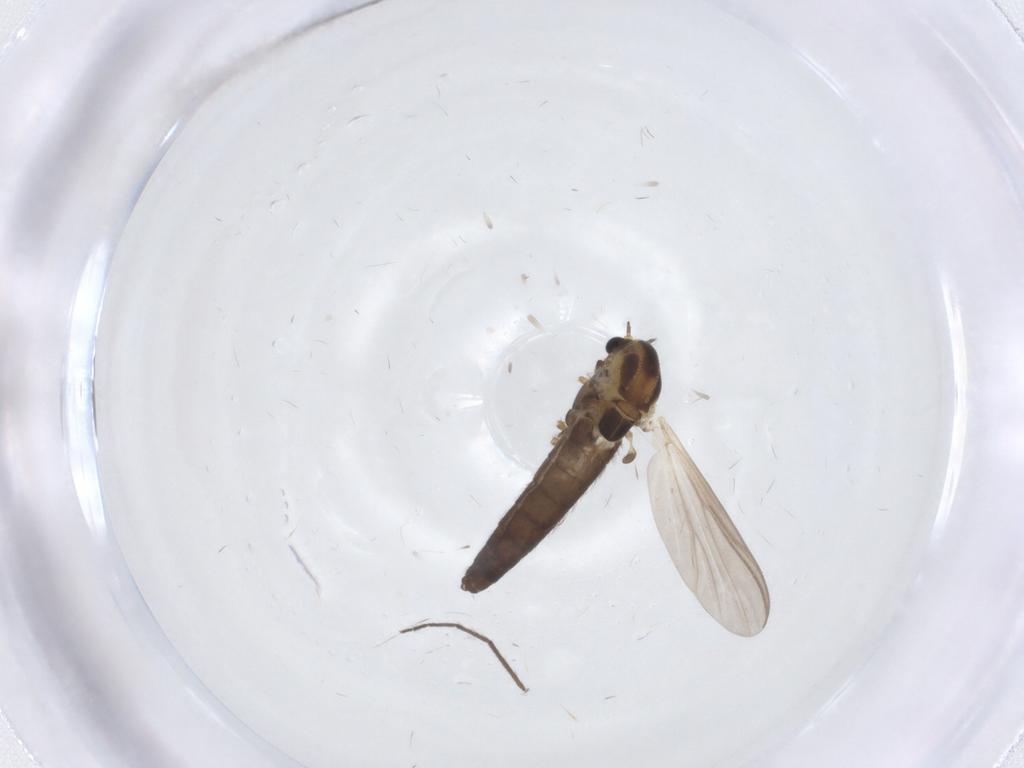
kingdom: Animalia
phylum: Arthropoda
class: Insecta
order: Diptera
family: Chironomidae
